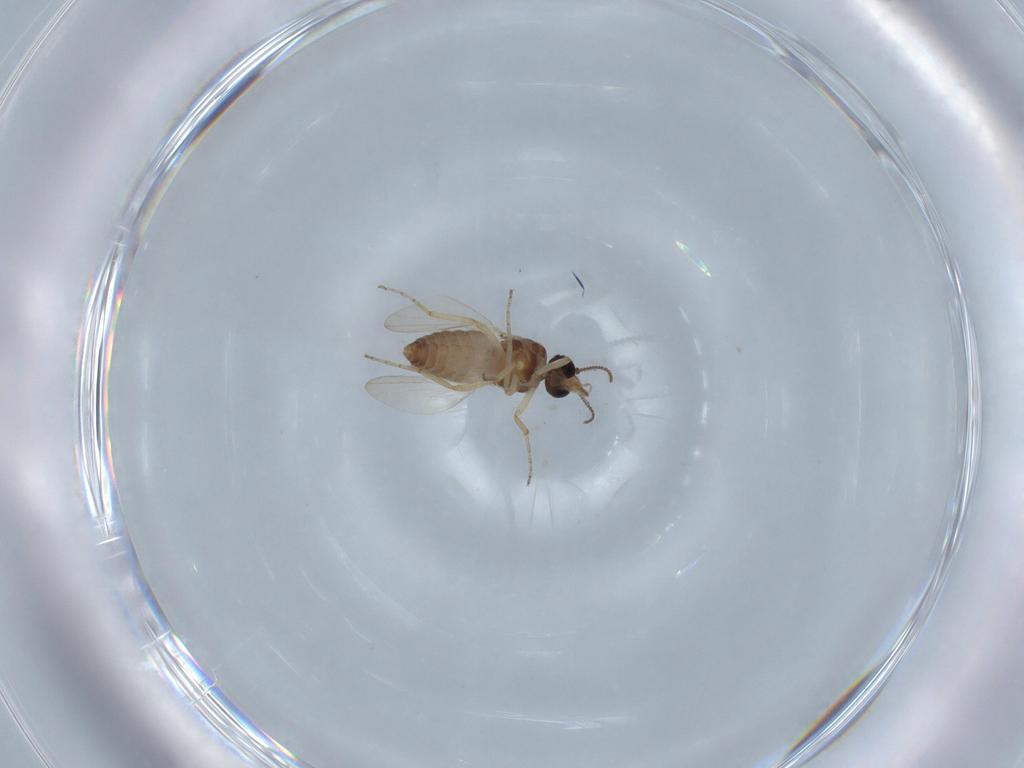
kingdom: Animalia
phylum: Arthropoda
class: Insecta
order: Diptera
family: Ceratopogonidae
